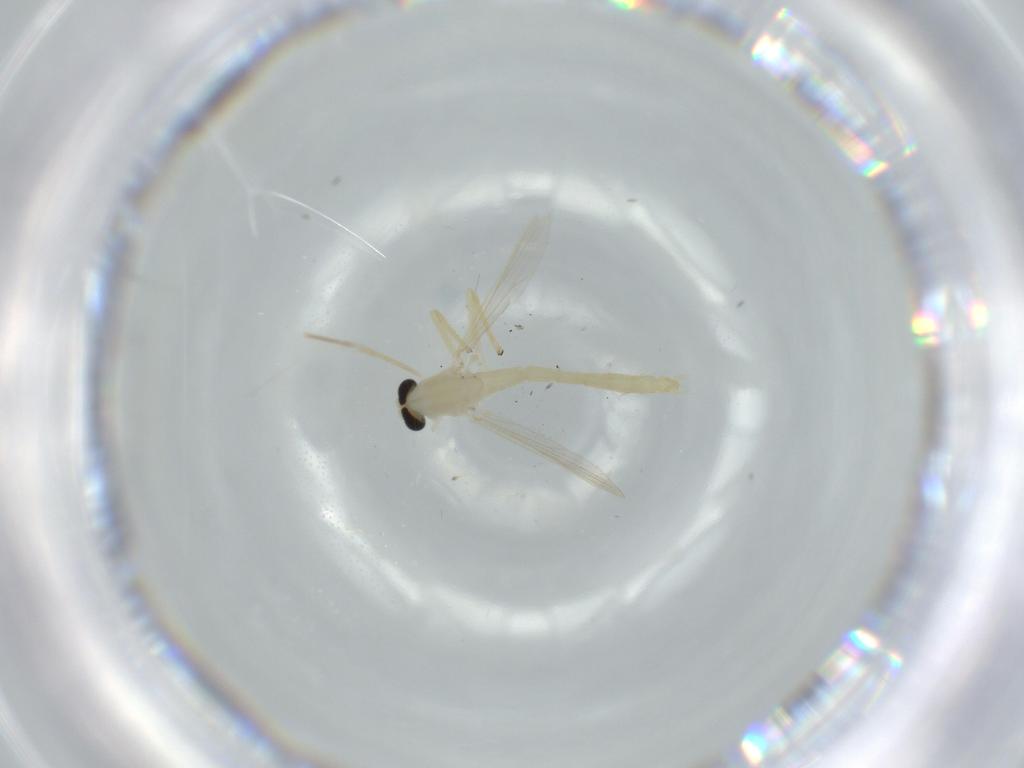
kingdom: Animalia
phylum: Arthropoda
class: Insecta
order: Diptera
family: Chironomidae
